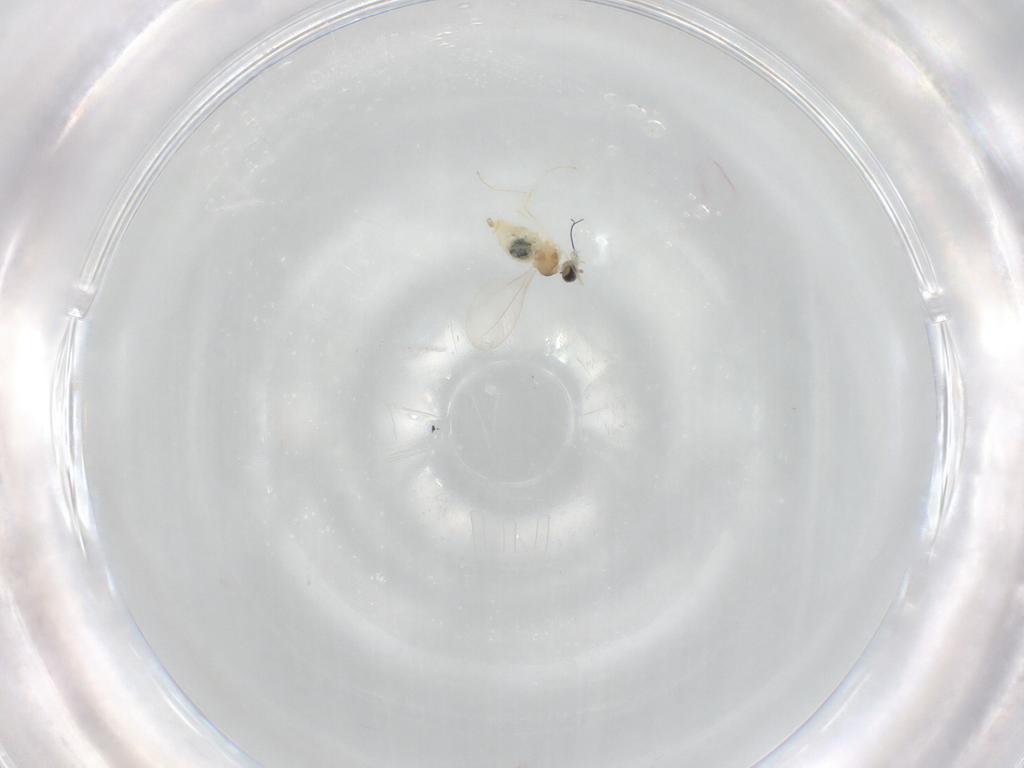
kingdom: Animalia
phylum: Arthropoda
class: Insecta
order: Diptera
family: Cecidomyiidae
